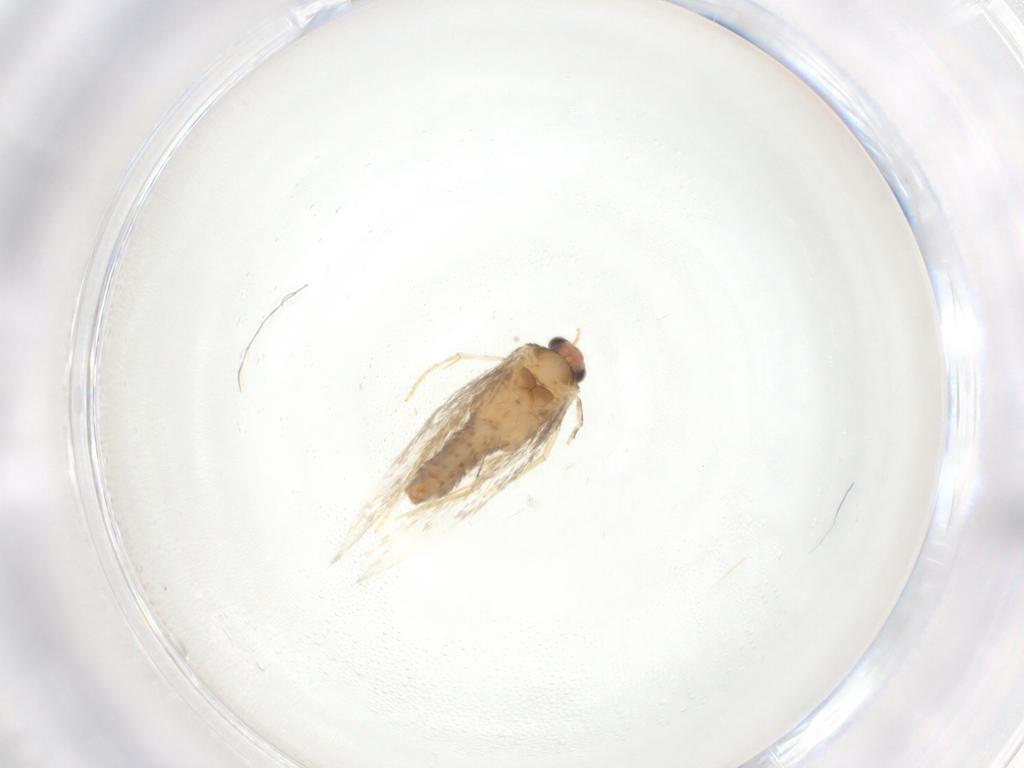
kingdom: Animalia
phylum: Arthropoda
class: Insecta
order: Lepidoptera
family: Nepticulidae
